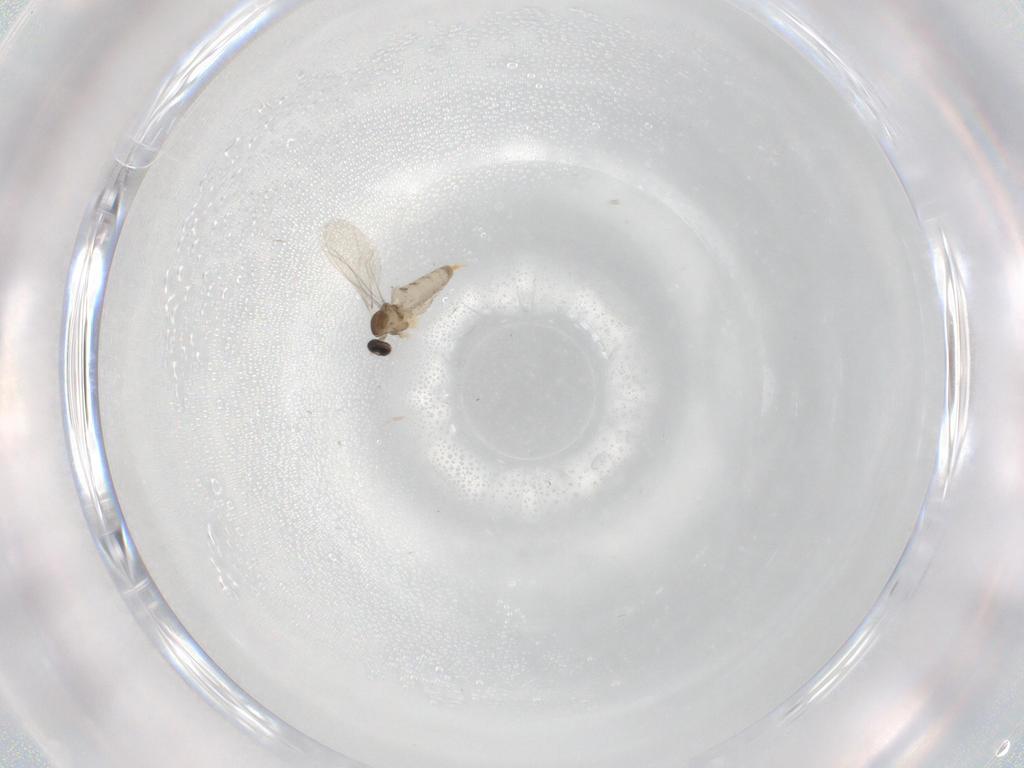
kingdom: Animalia
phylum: Arthropoda
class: Insecta
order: Diptera
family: Cecidomyiidae
